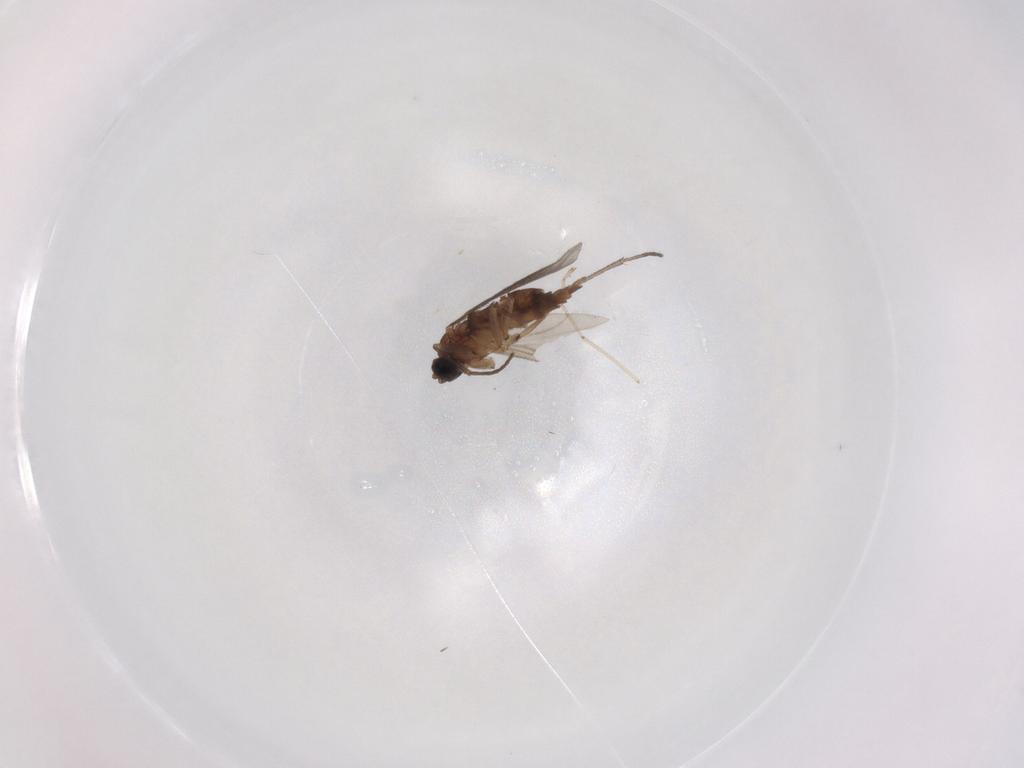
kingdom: Animalia
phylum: Arthropoda
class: Insecta
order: Diptera
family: Cecidomyiidae
